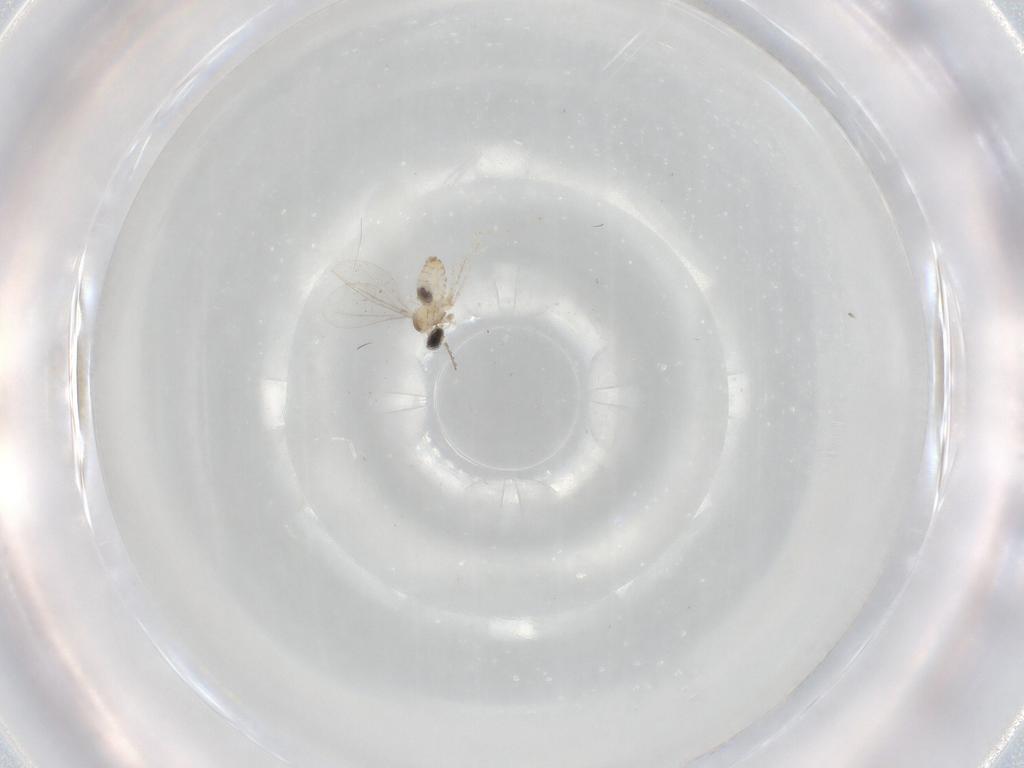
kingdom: Animalia
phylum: Arthropoda
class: Insecta
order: Diptera
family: Cecidomyiidae
